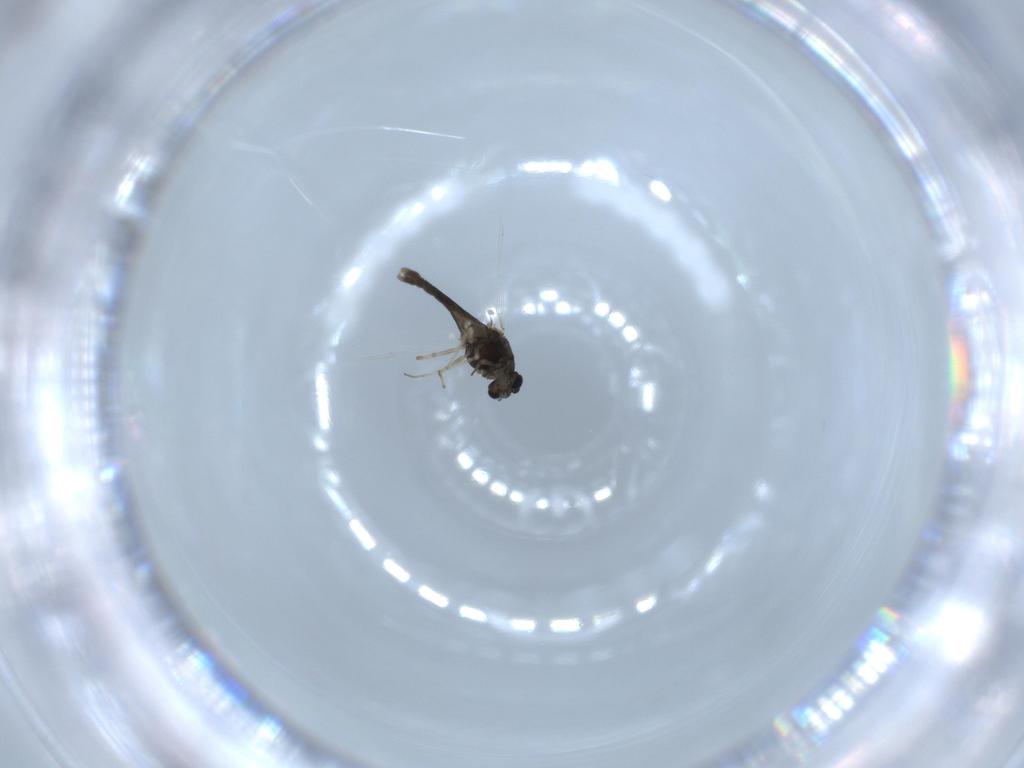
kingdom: Animalia
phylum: Arthropoda
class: Insecta
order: Diptera
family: Chironomidae
